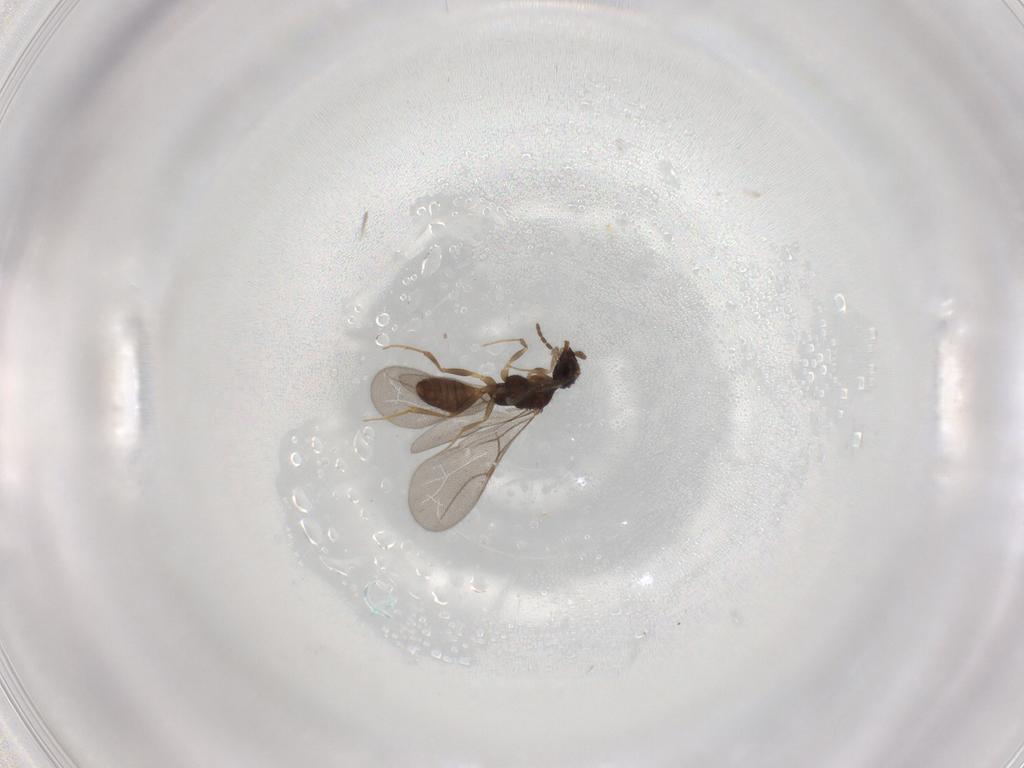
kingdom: Animalia
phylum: Arthropoda
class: Insecta
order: Hymenoptera
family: Bethylidae
